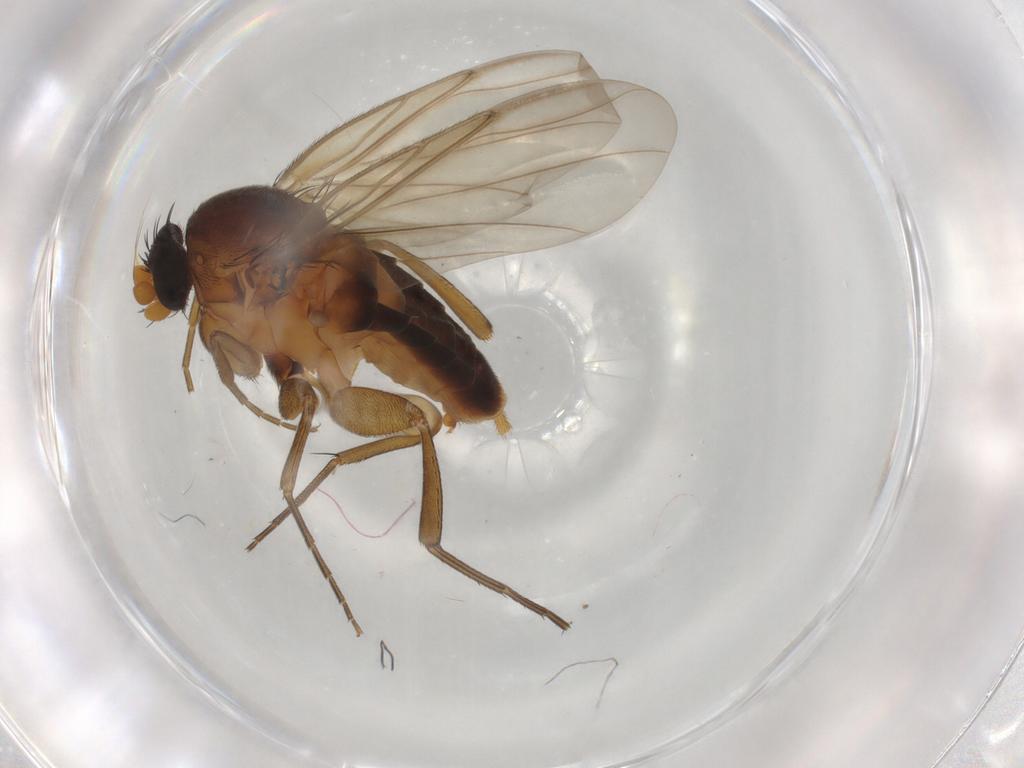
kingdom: Animalia
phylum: Arthropoda
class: Insecta
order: Diptera
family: Phoridae
